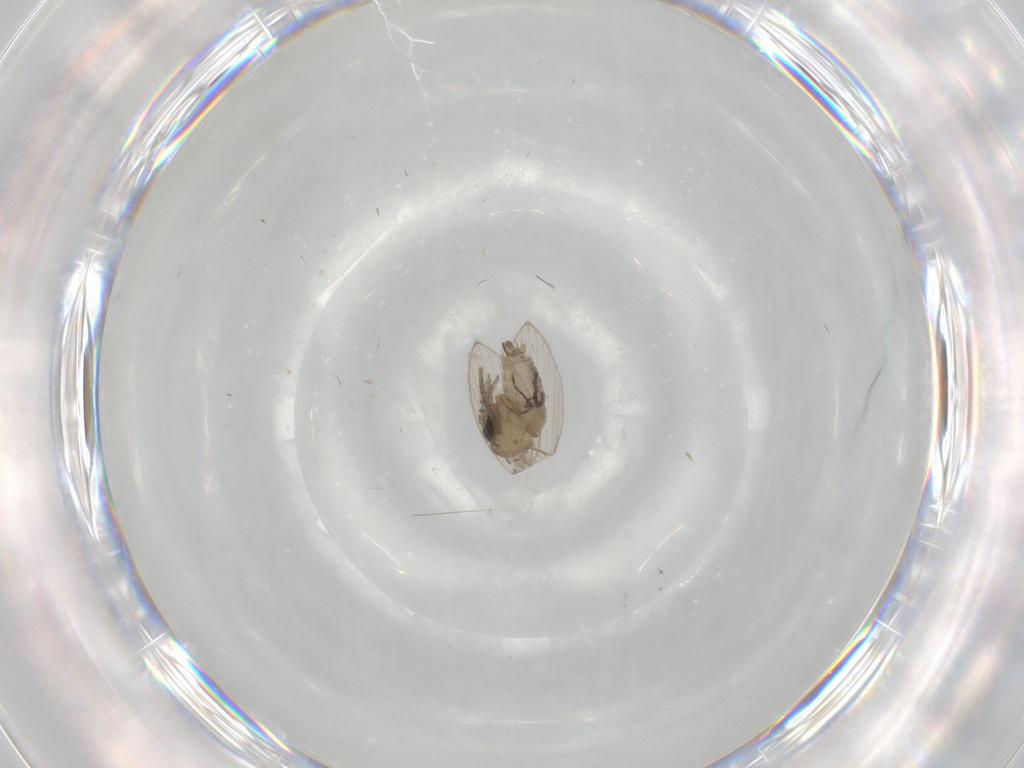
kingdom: Animalia
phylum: Arthropoda
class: Insecta
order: Diptera
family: Psychodidae
